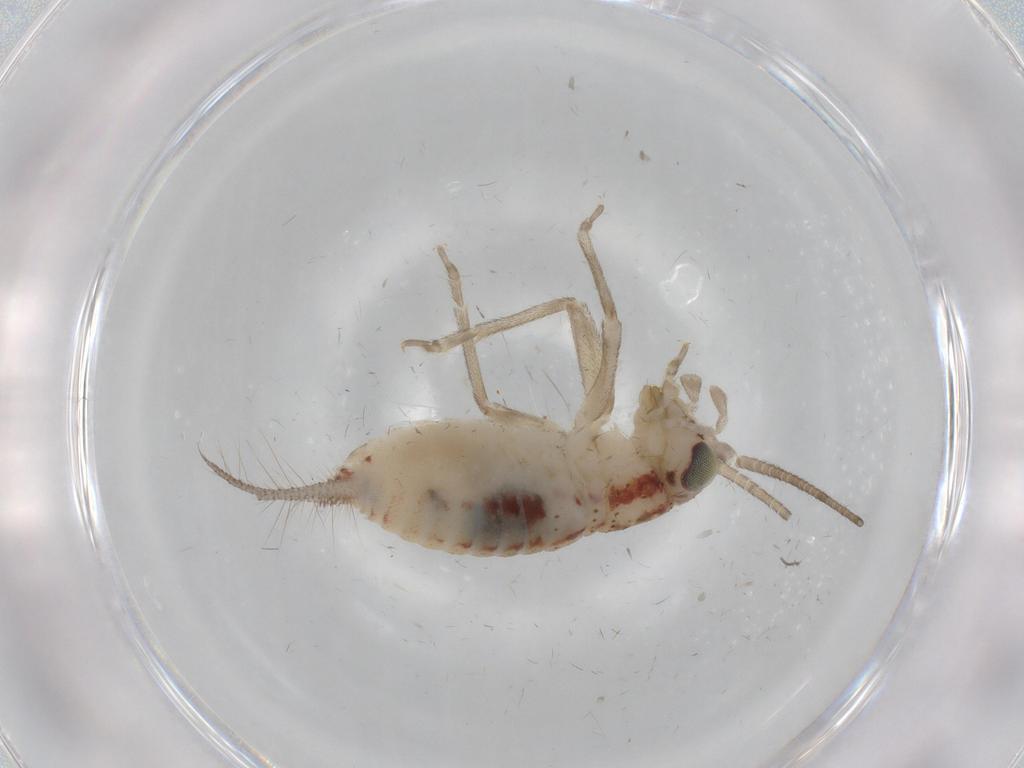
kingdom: Animalia
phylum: Arthropoda
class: Insecta
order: Orthoptera
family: Trigonidiidae
